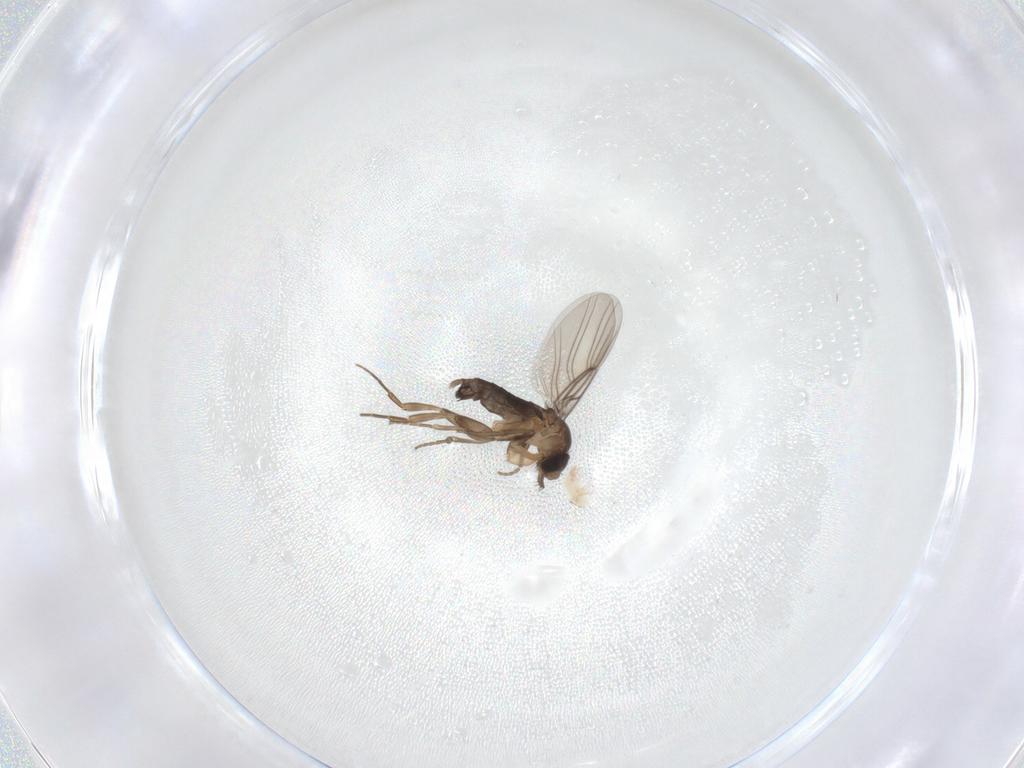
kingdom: Animalia
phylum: Arthropoda
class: Insecta
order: Diptera
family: Phoridae
